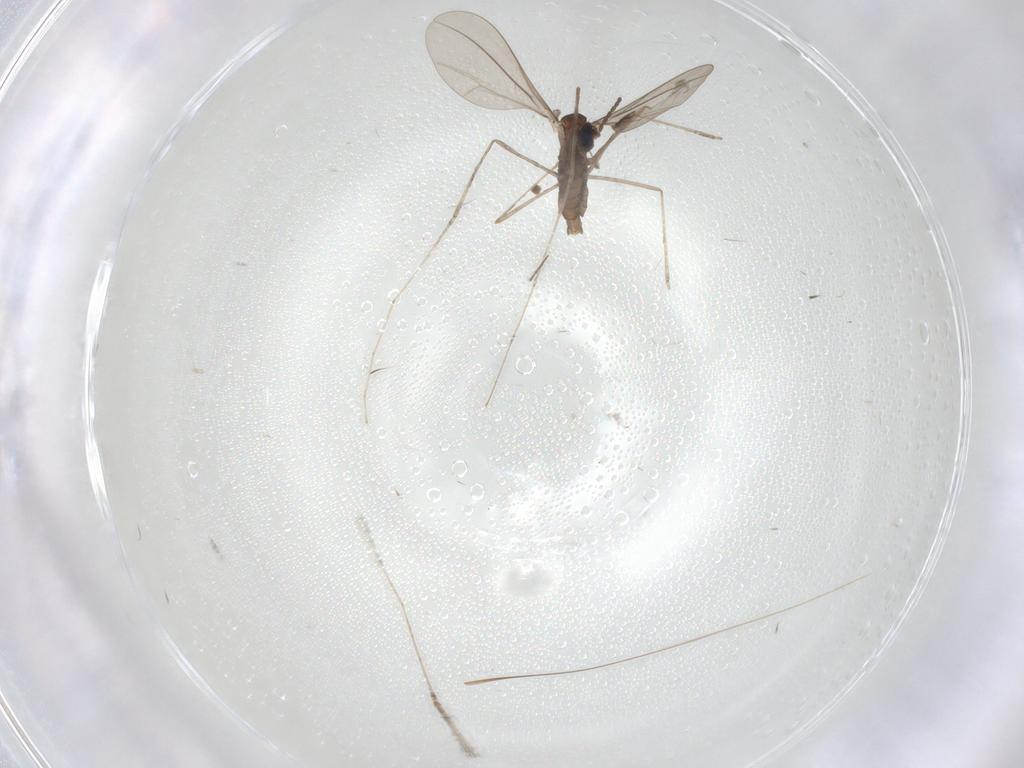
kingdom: Animalia
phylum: Arthropoda
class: Insecta
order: Diptera
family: Cecidomyiidae
